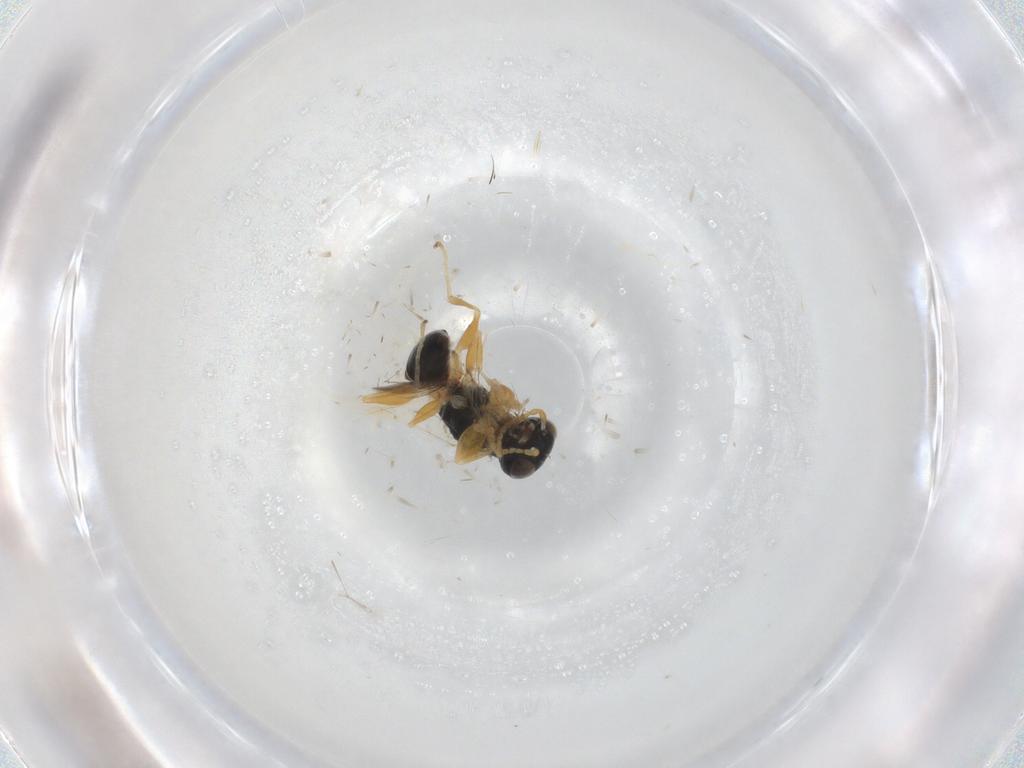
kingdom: Animalia
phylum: Arthropoda
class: Insecta
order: Hymenoptera
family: Dryinidae
